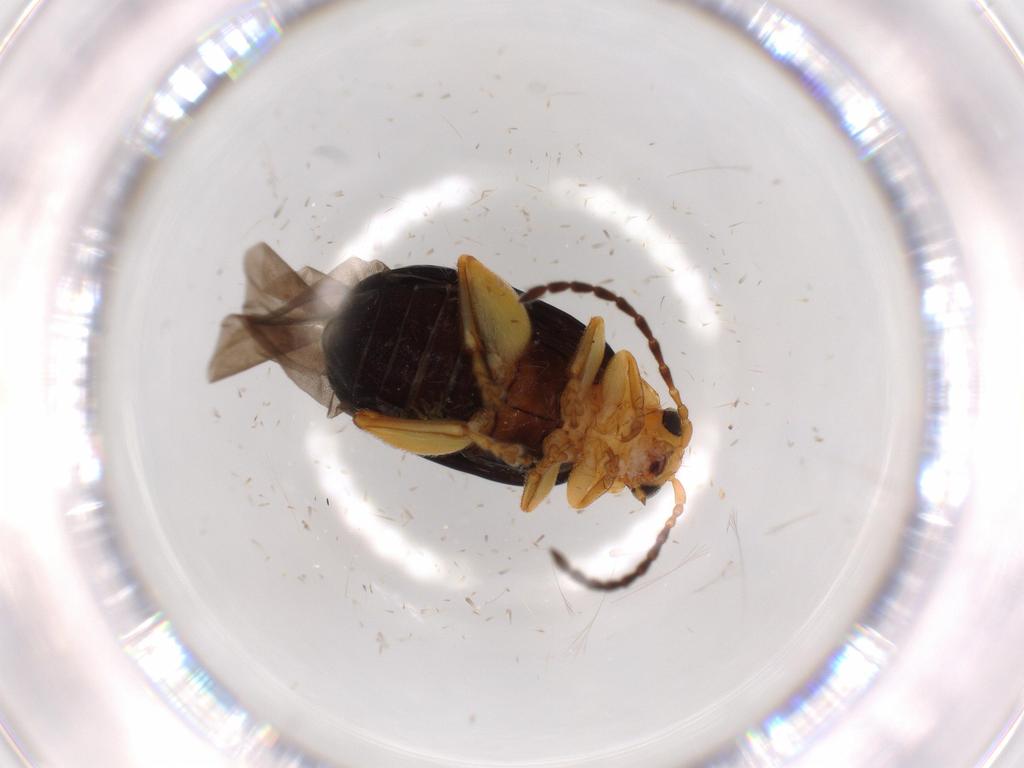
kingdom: Animalia
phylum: Arthropoda
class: Insecta
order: Coleoptera
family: Chrysomelidae
